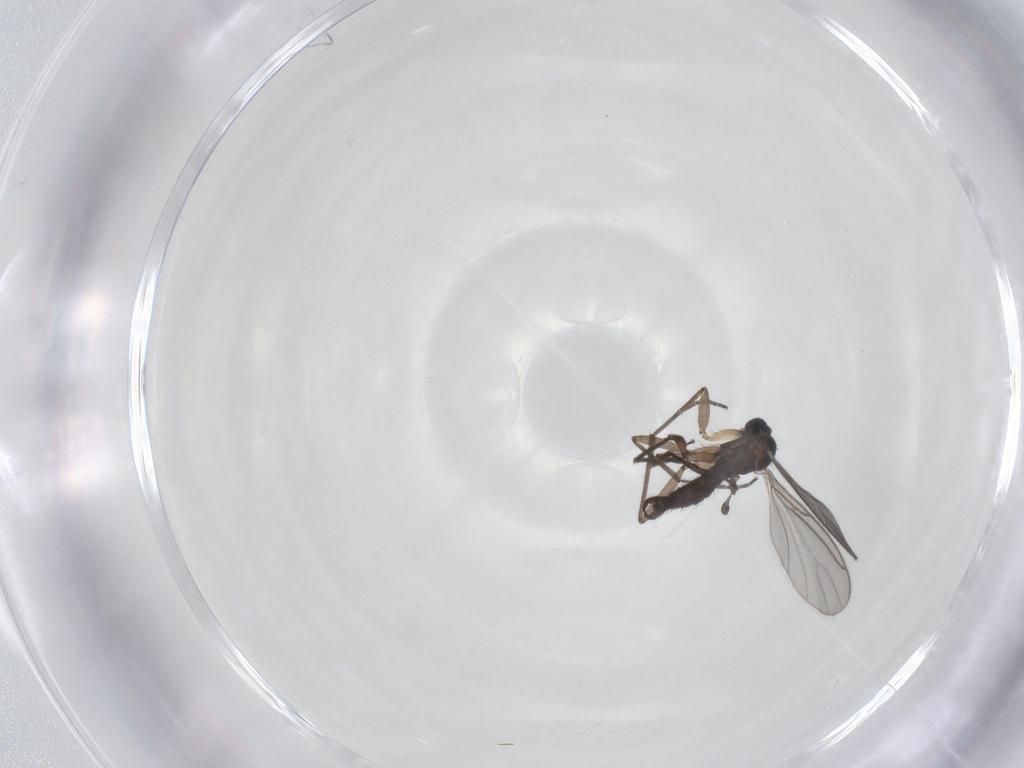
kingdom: Animalia
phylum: Arthropoda
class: Insecta
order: Diptera
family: Sciaridae
